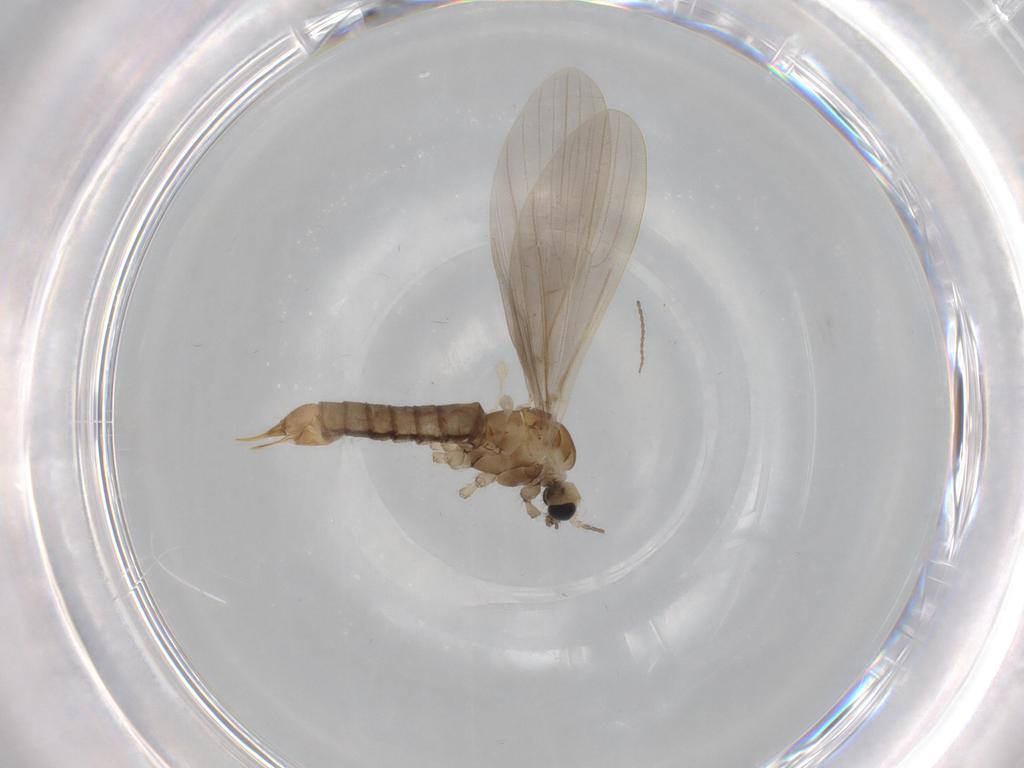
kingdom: Animalia
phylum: Arthropoda
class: Insecta
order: Diptera
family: Limoniidae
